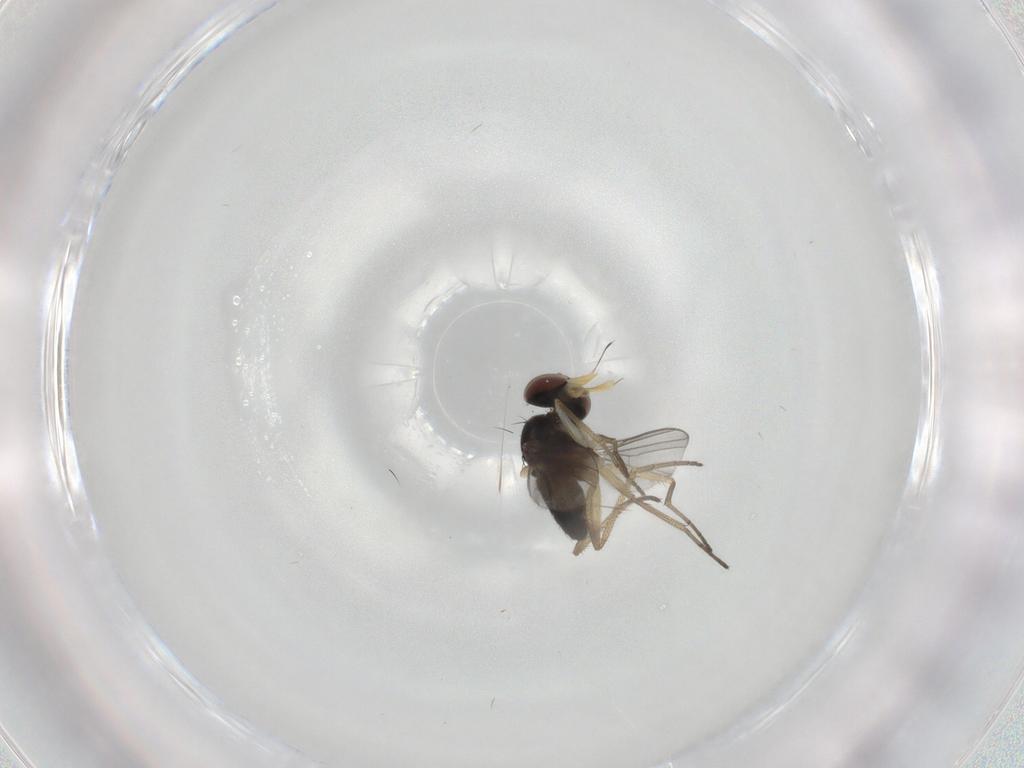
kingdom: Animalia
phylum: Arthropoda
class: Insecta
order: Diptera
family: Dolichopodidae
